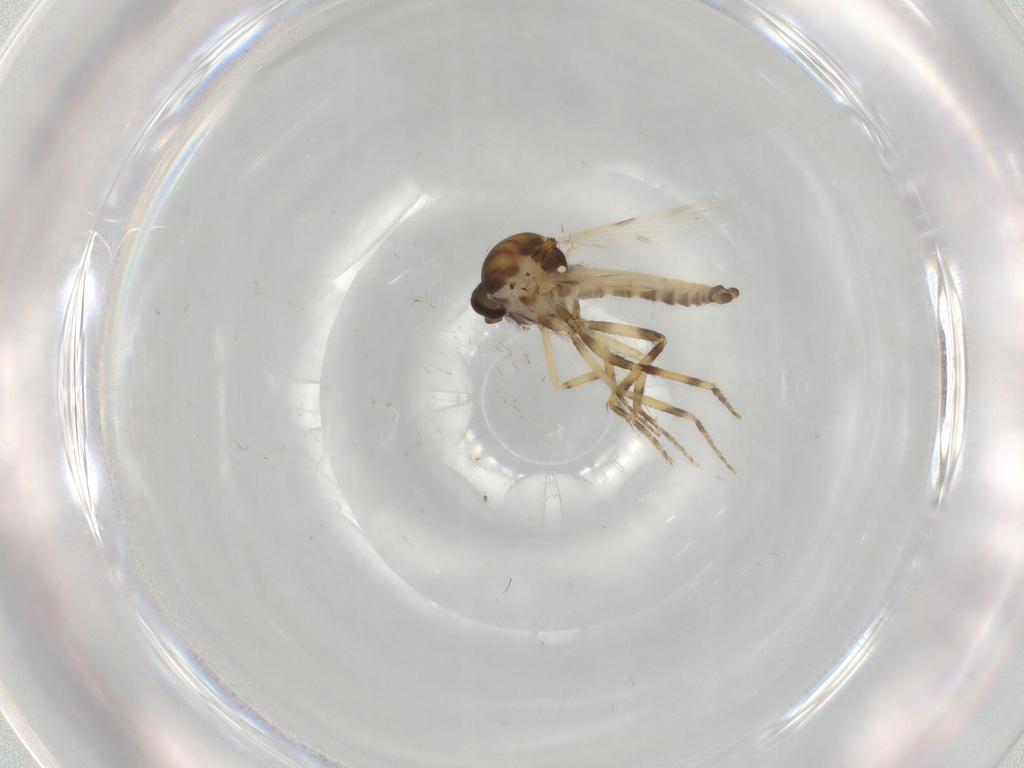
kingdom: Animalia
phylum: Arthropoda
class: Insecta
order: Diptera
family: Ceratopogonidae
